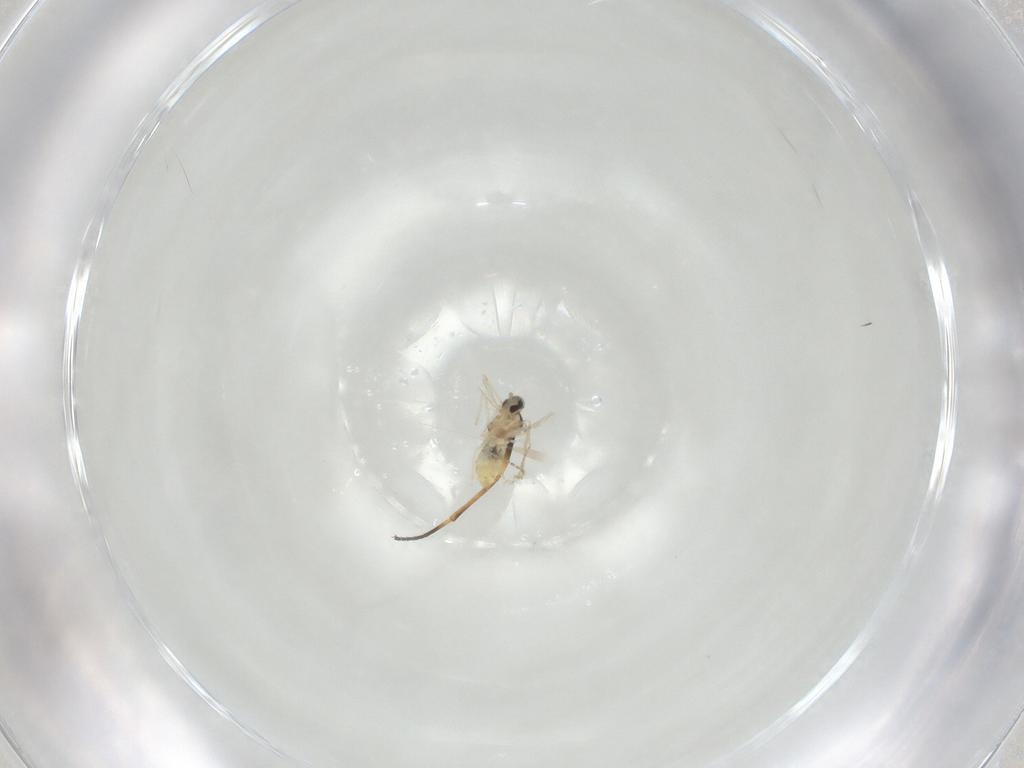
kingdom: Animalia
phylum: Arthropoda
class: Insecta
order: Diptera
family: Cecidomyiidae
